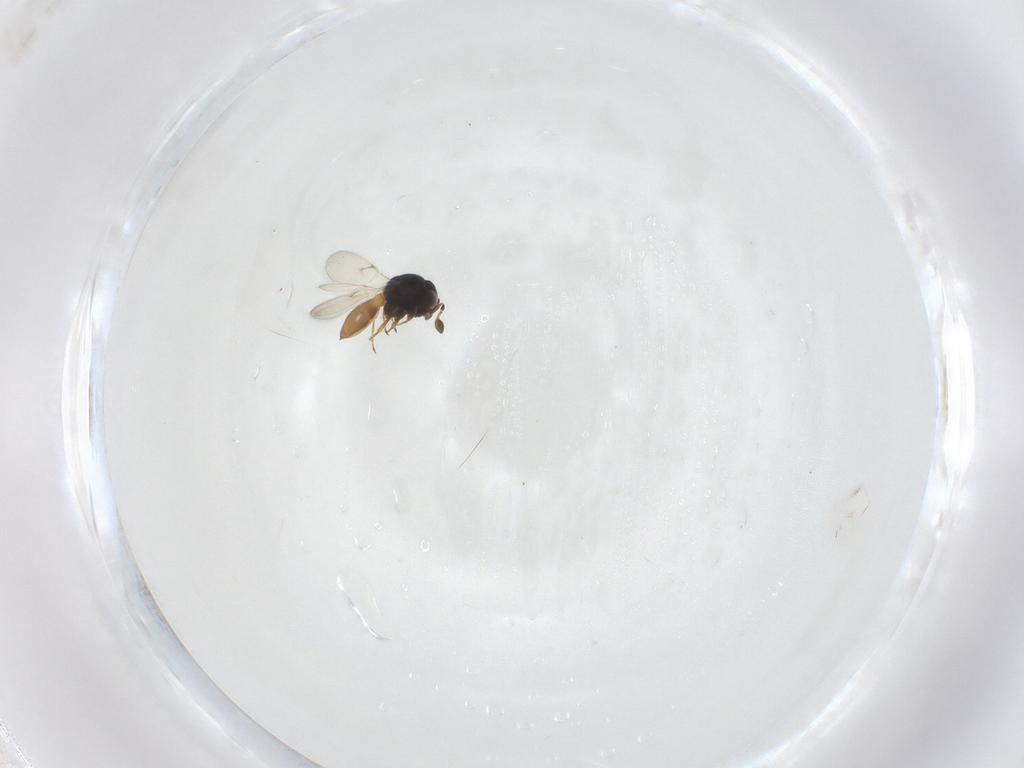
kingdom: Animalia
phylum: Arthropoda
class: Arachnida
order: Araneae
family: Pholcidae
